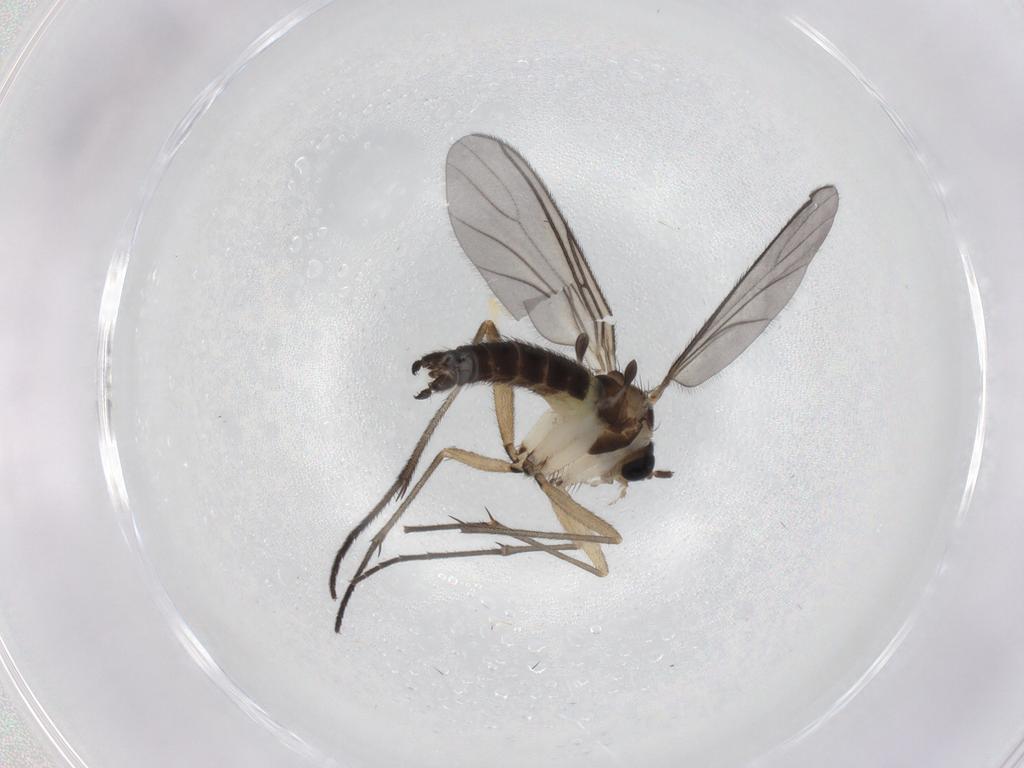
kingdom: Animalia
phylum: Arthropoda
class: Insecta
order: Diptera
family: Sciaridae
